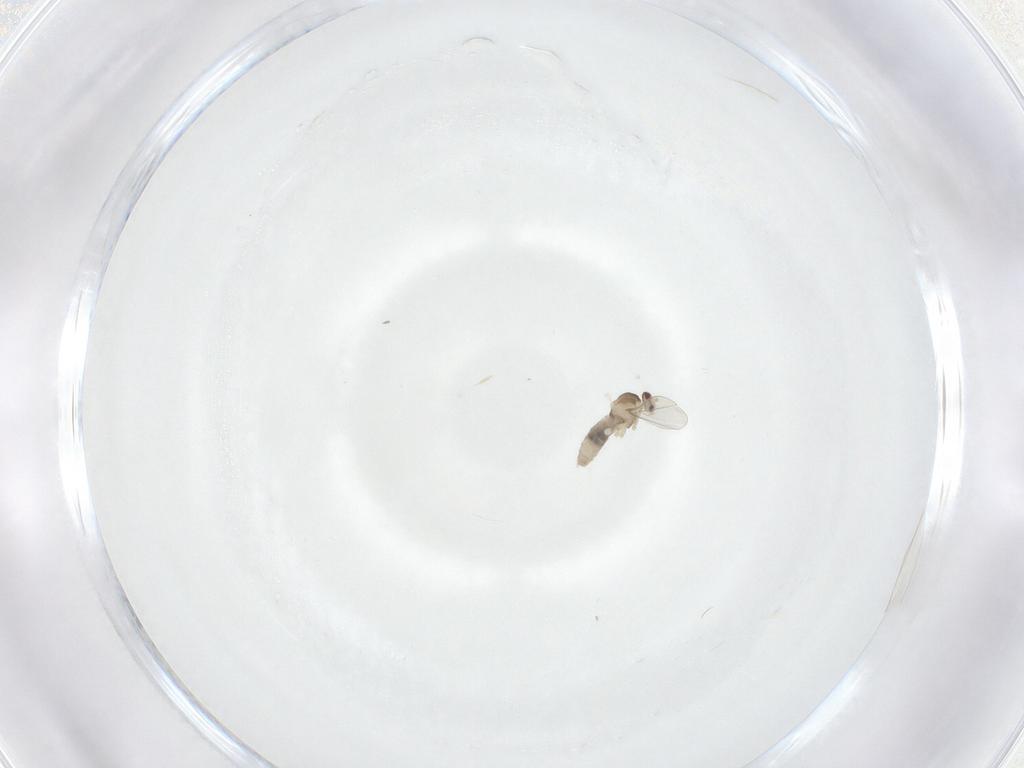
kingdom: Animalia
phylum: Arthropoda
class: Insecta
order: Diptera
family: Cecidomyiidae
